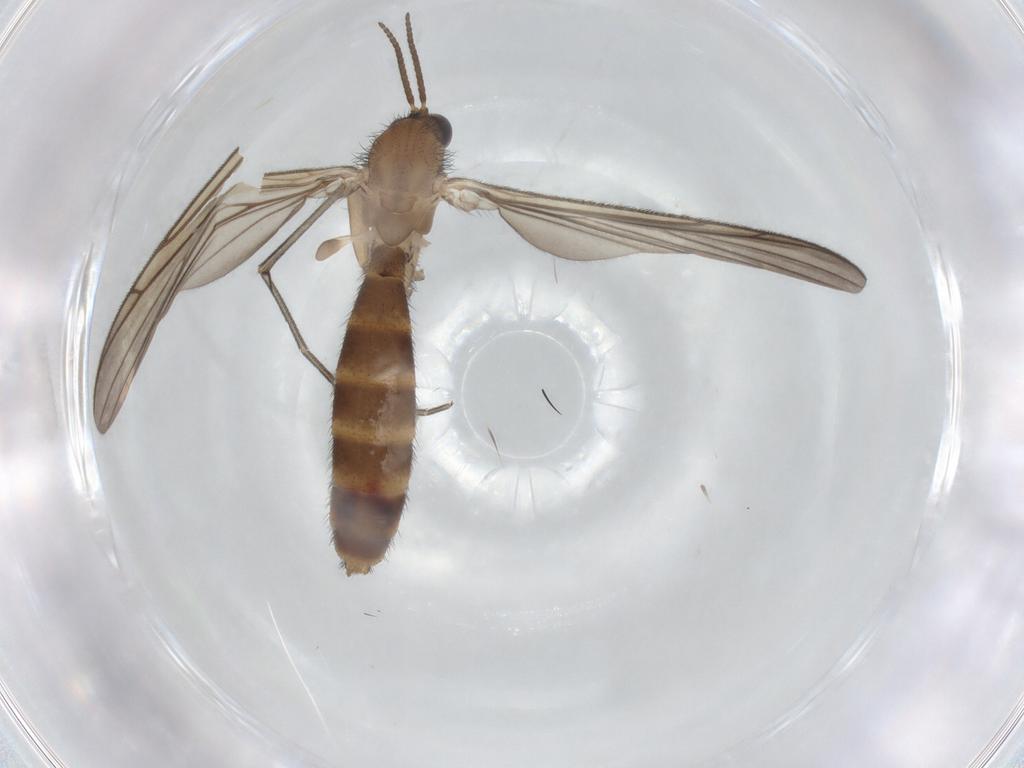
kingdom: Animalia
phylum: Arthropoda
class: Insecta
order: Diptera
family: Keroplatidae
